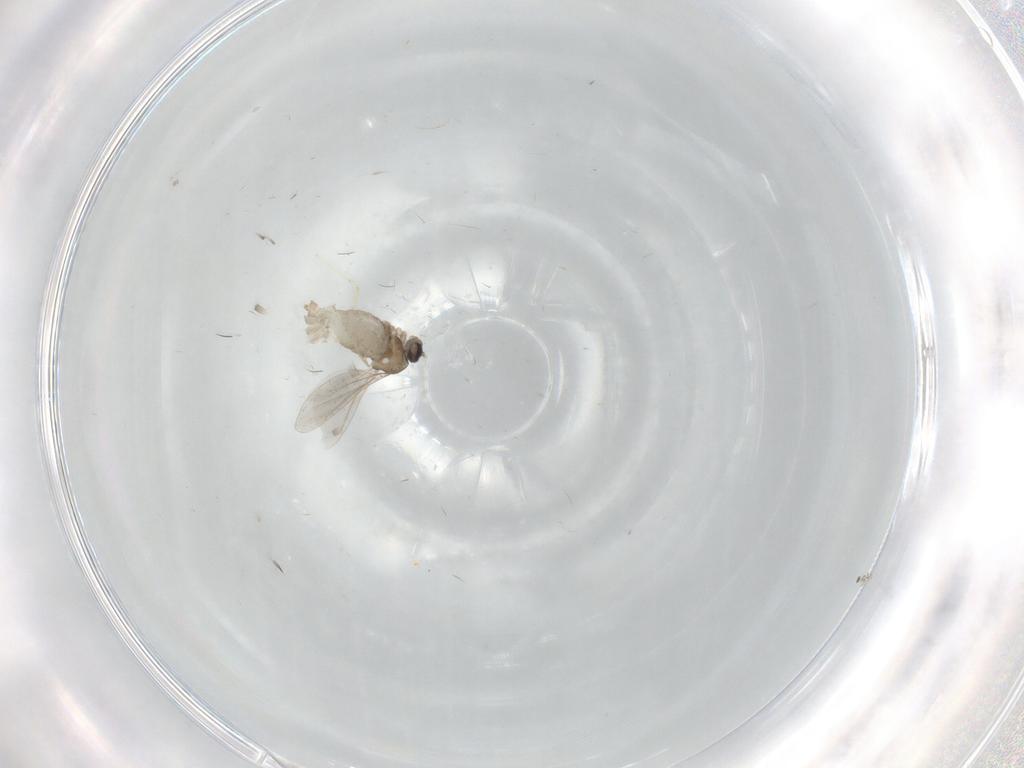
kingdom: Animalia
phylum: Arthropoda
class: Insecta
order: Diptera
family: Cecidomyiidae
